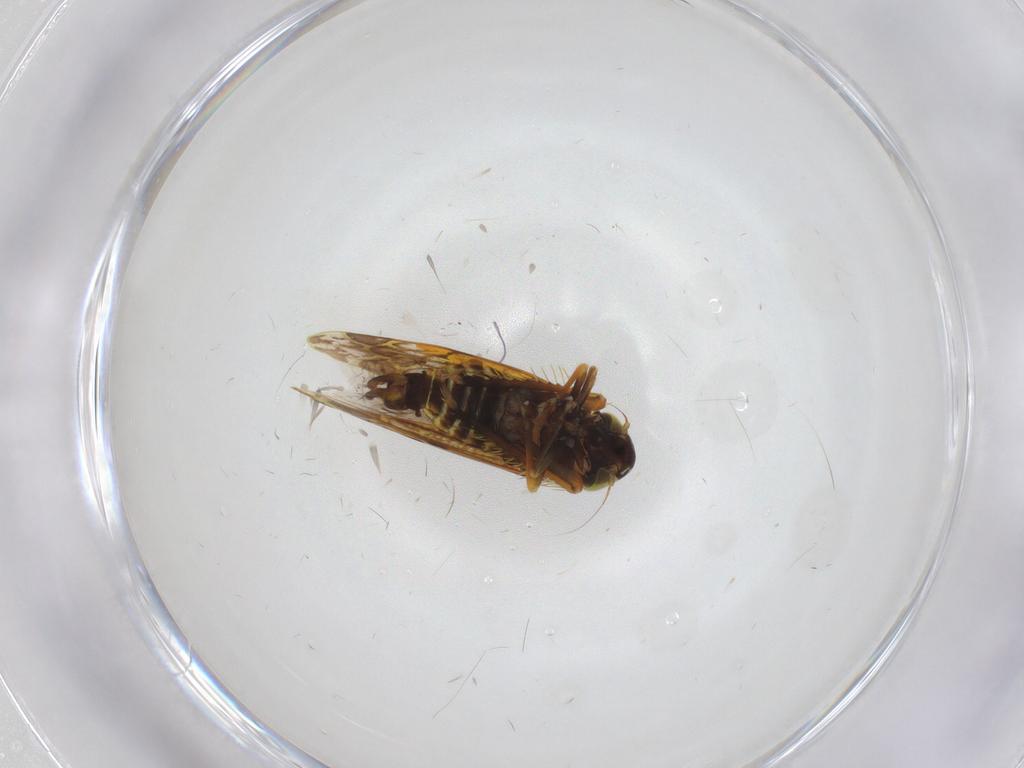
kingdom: Animalia
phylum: Arthropoda
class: Insecta
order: Hemiptera
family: Cicadellidae
